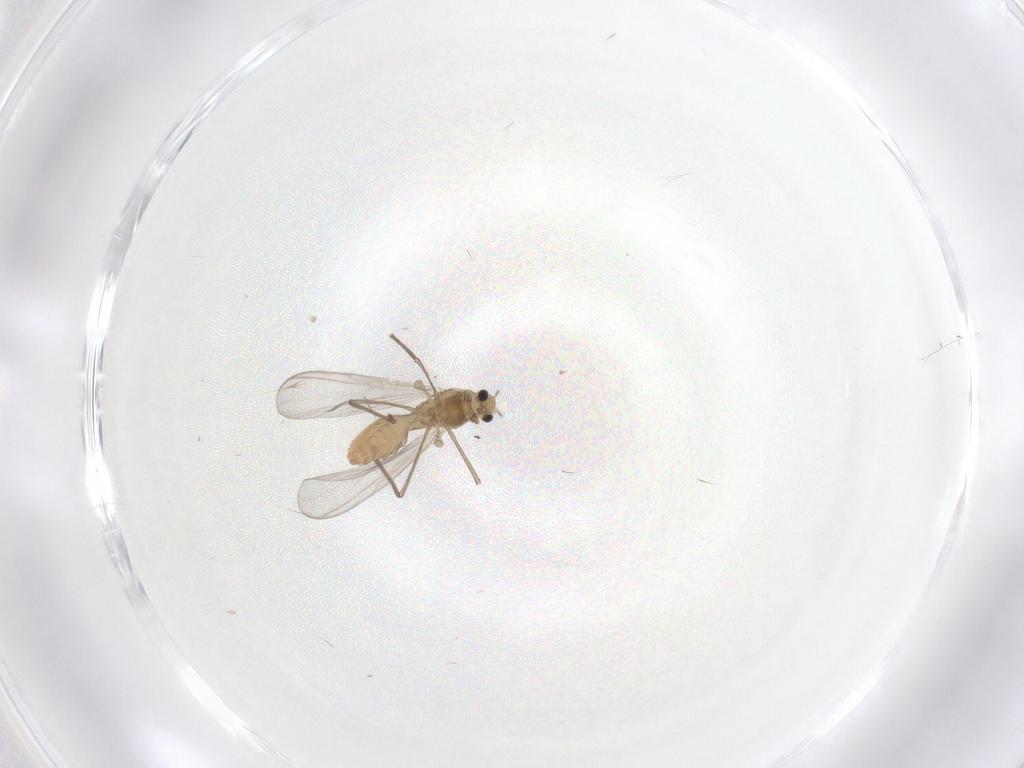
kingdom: Animalia
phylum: Arthropoda
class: Insecta
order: Diptera
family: Chironomidae
